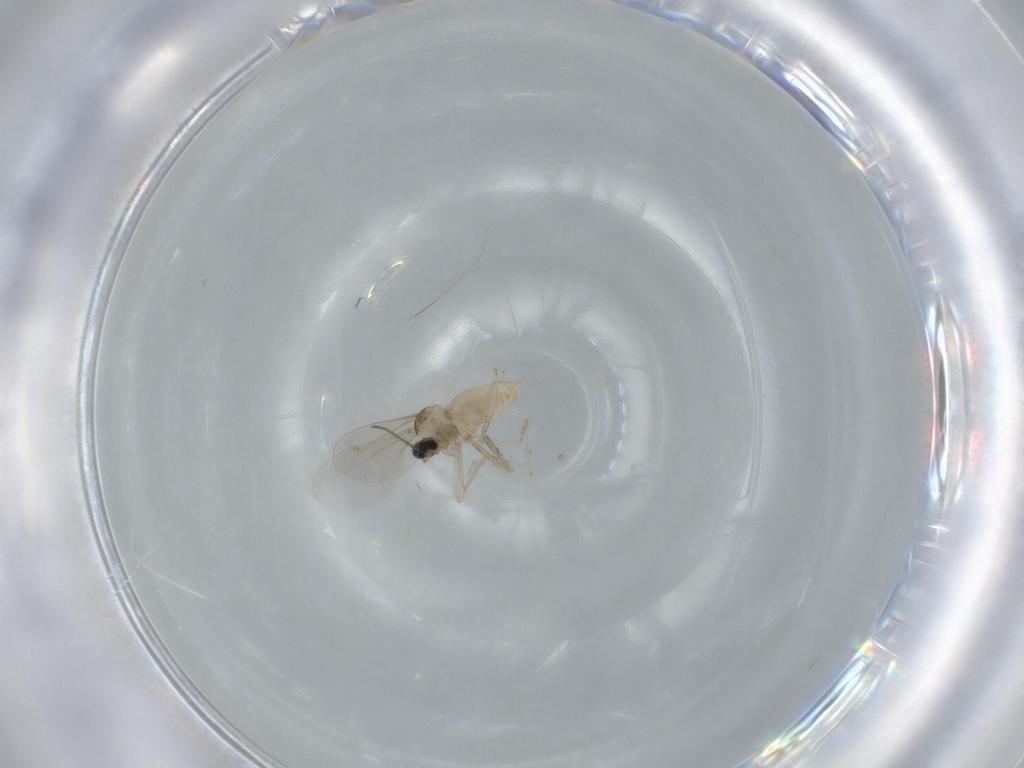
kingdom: Animalia
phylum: Arthropoda
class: Insecta
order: Diptera
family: Cecidomyiidae
